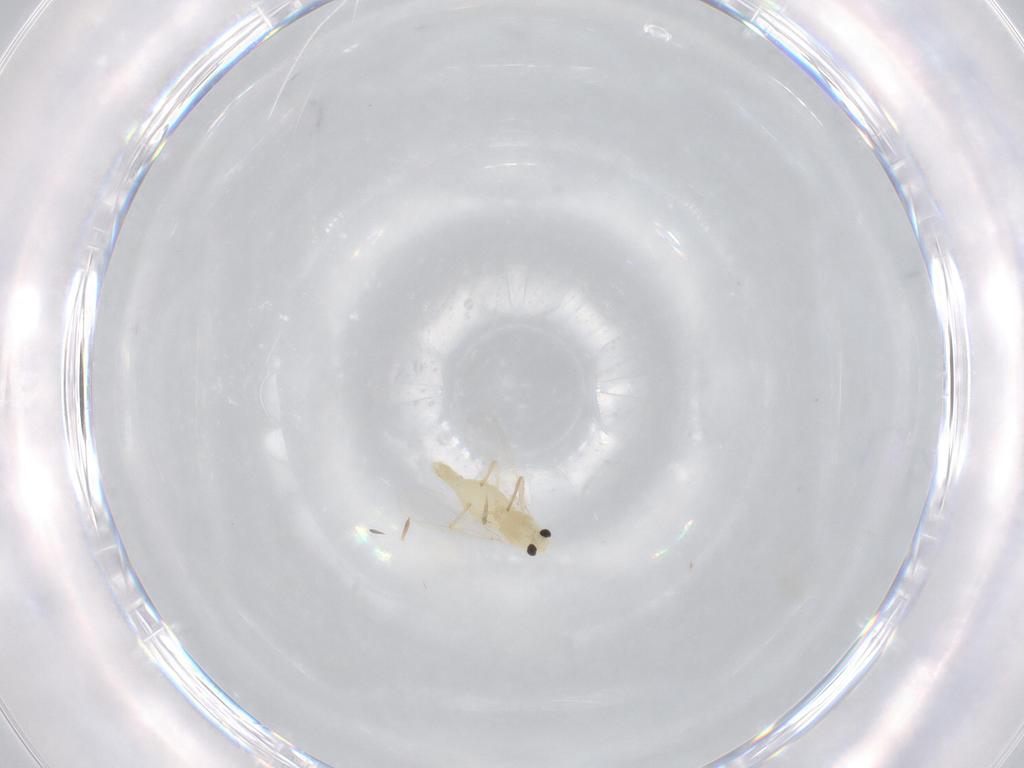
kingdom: Animalia
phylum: Arthropoda
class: Insecta
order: Diptera
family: Chironomidae
